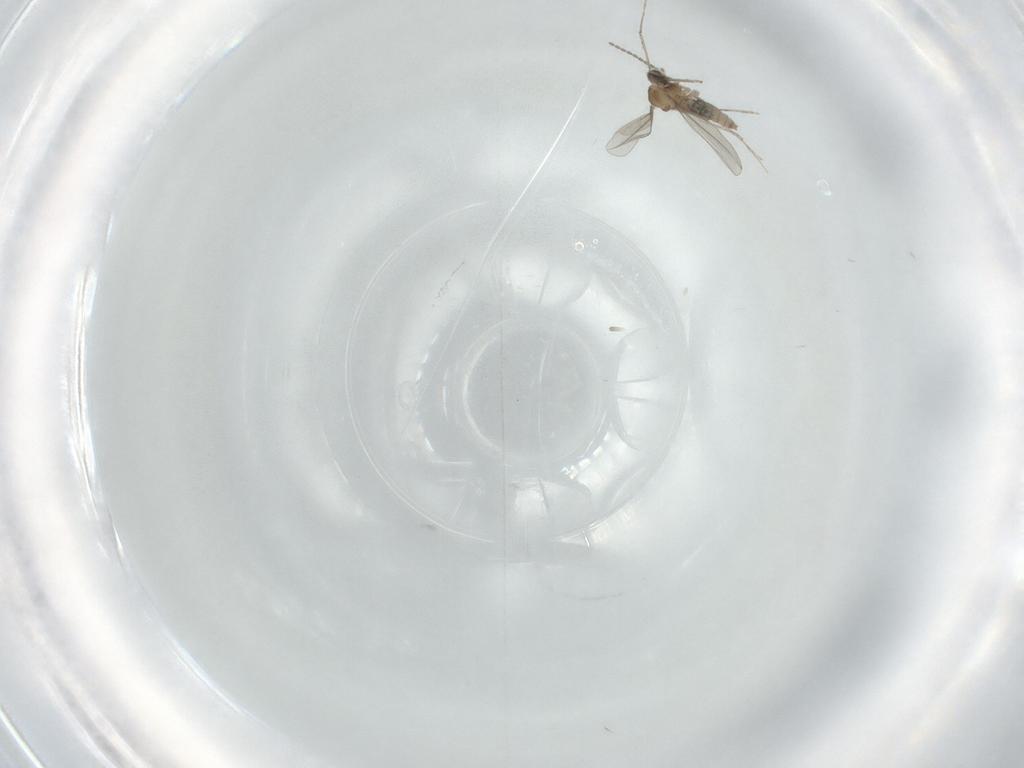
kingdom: Animalia
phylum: Arthropoda
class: Insecta
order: Diptera
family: Cecidomyiidae
